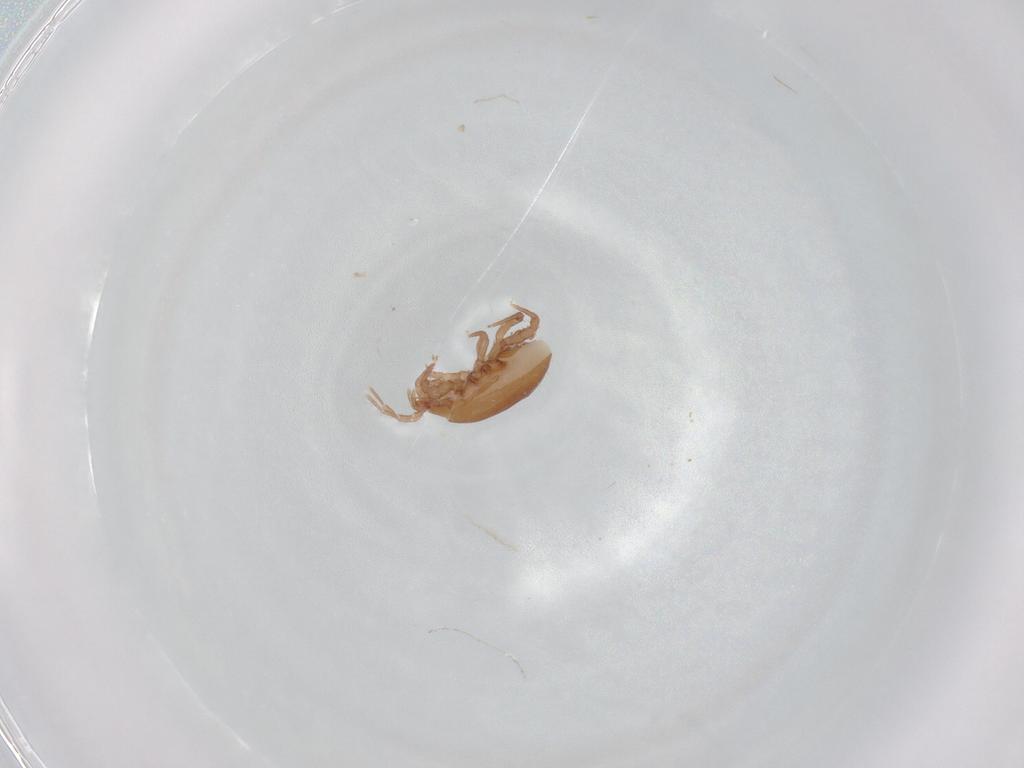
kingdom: Animalia
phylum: Arthropoda
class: Arachnida
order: Mesostigmata
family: Macrochelidae
